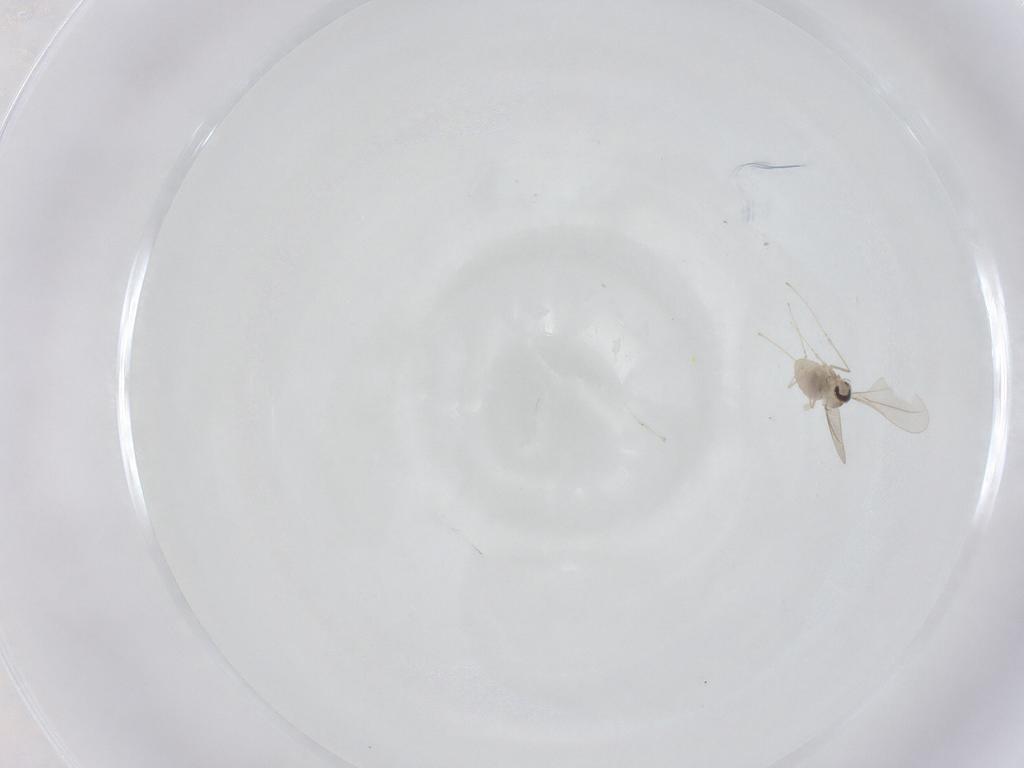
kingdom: Animalia
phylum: Arthropoda
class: Insecta
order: Diptera
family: Cecidomyiidae
